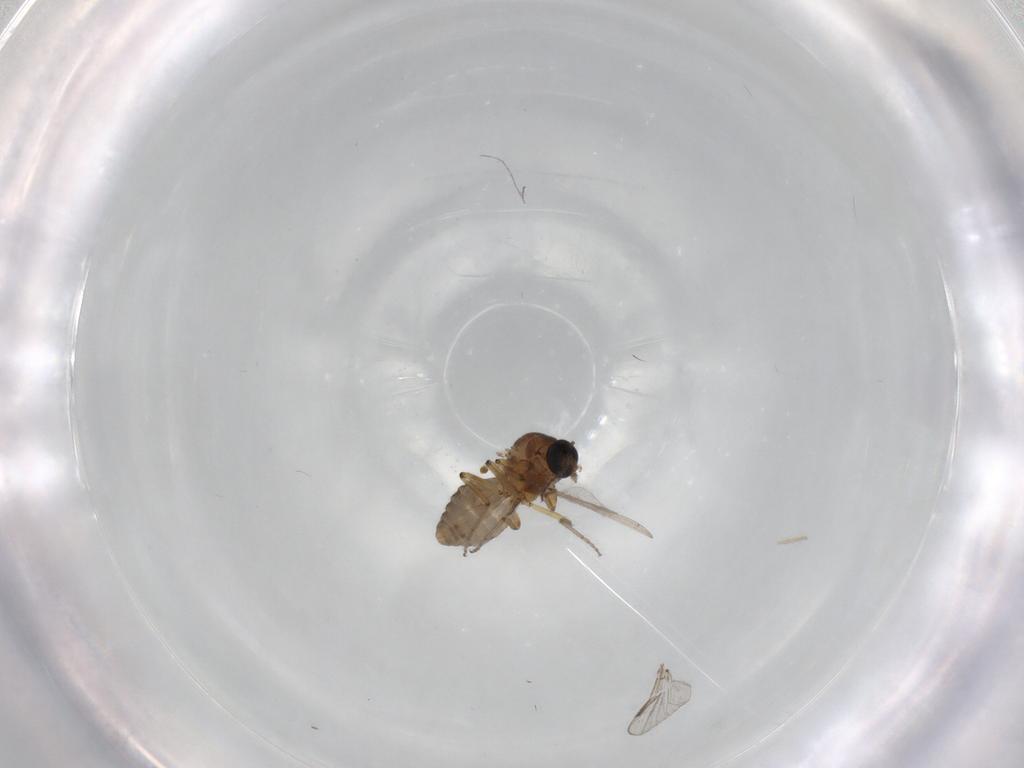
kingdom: Animalia
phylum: Arthropoda
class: Insecta
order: Diptera
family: Ceratopogonidae
